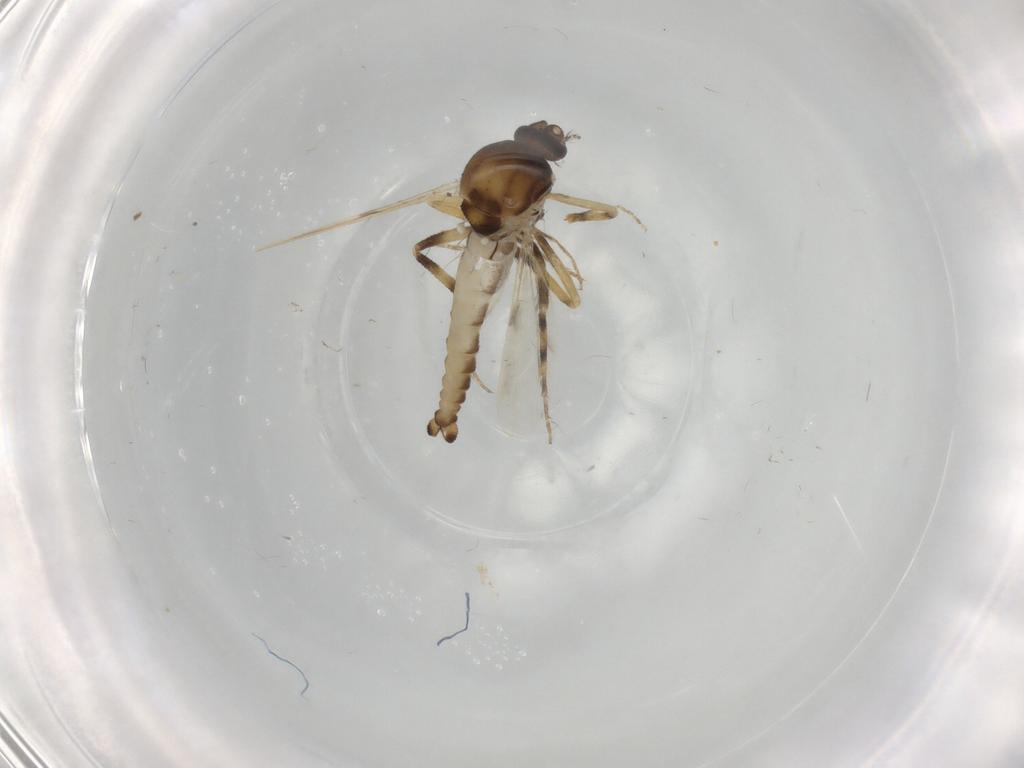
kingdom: Animalia
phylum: Arthropoda
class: Insecta
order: Diptera
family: Ceratopogonidae
